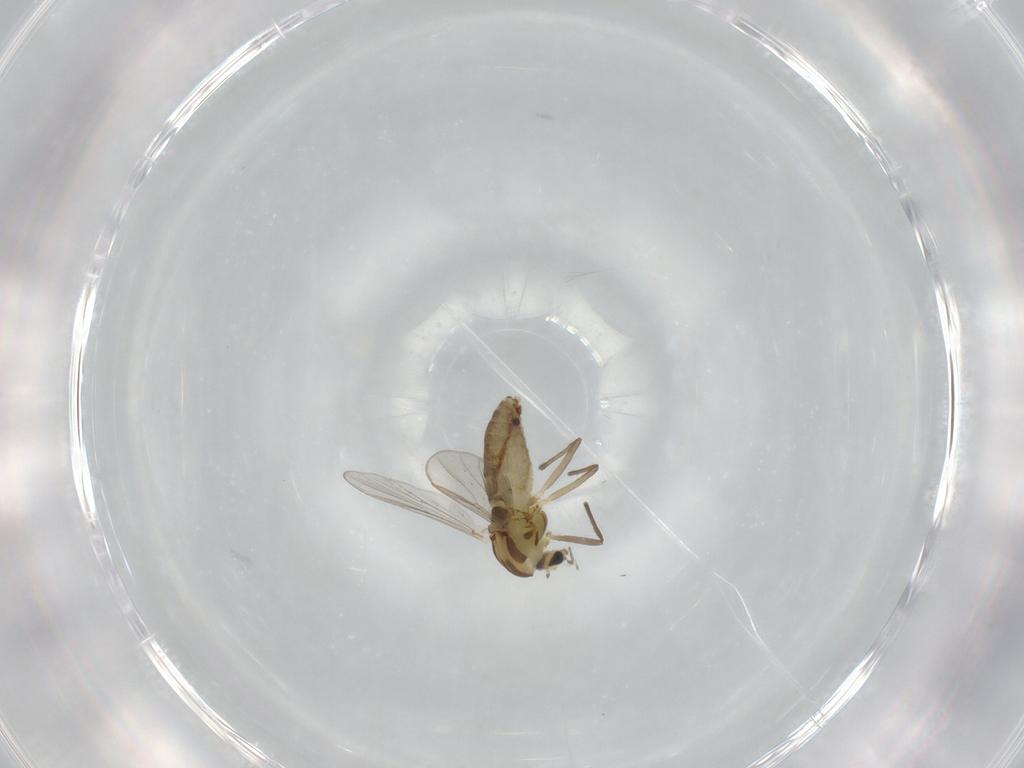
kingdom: Animalia
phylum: Arthropoda
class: Insecta
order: Diptera
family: Chironomidae
